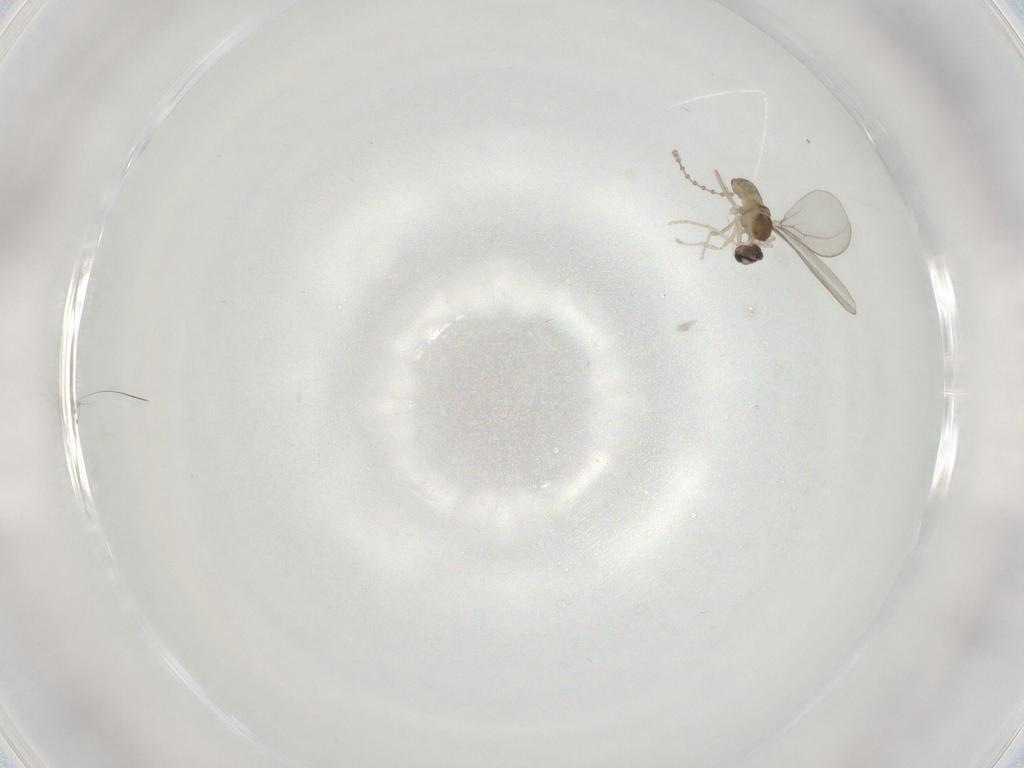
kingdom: Animalia
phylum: Arthropoda
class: Insecta
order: Diptera
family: Cecidomyiidae
